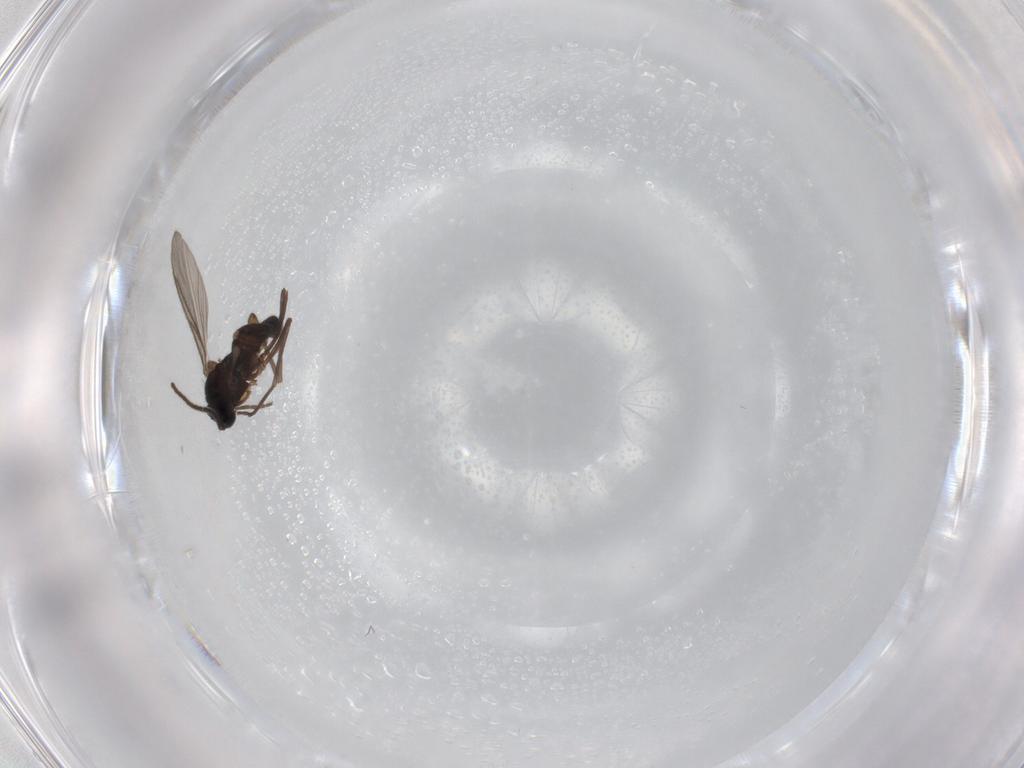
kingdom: Animalia
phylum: Arthropoda
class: Insecta
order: Diptera
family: Sciaridae
